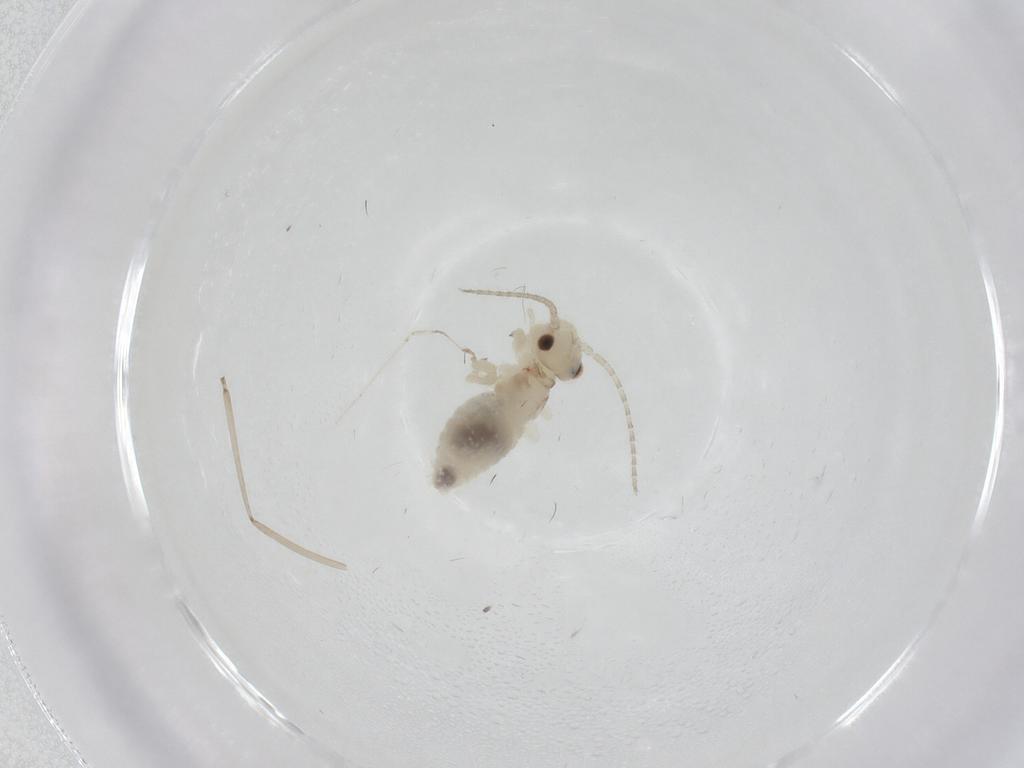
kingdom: Animalia
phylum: Arthropoda
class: Insecta
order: Psocodea
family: Amphipsocidae
